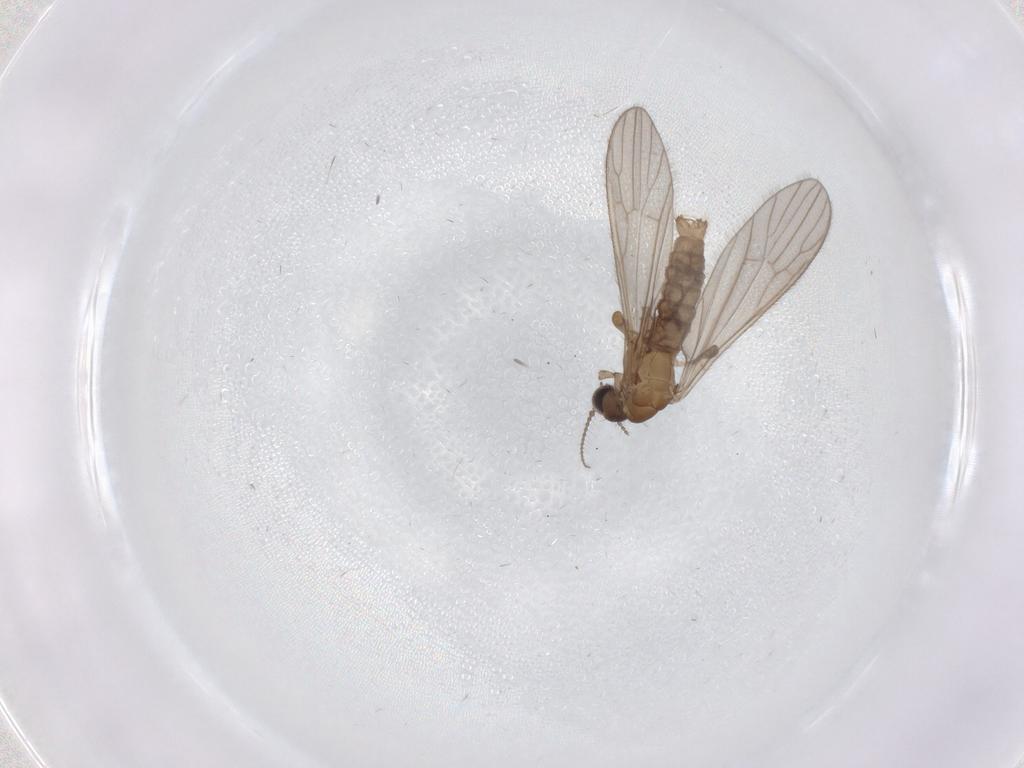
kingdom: Animalia
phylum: Arthropoda
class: Insecta
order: Diptera
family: Phoridae
